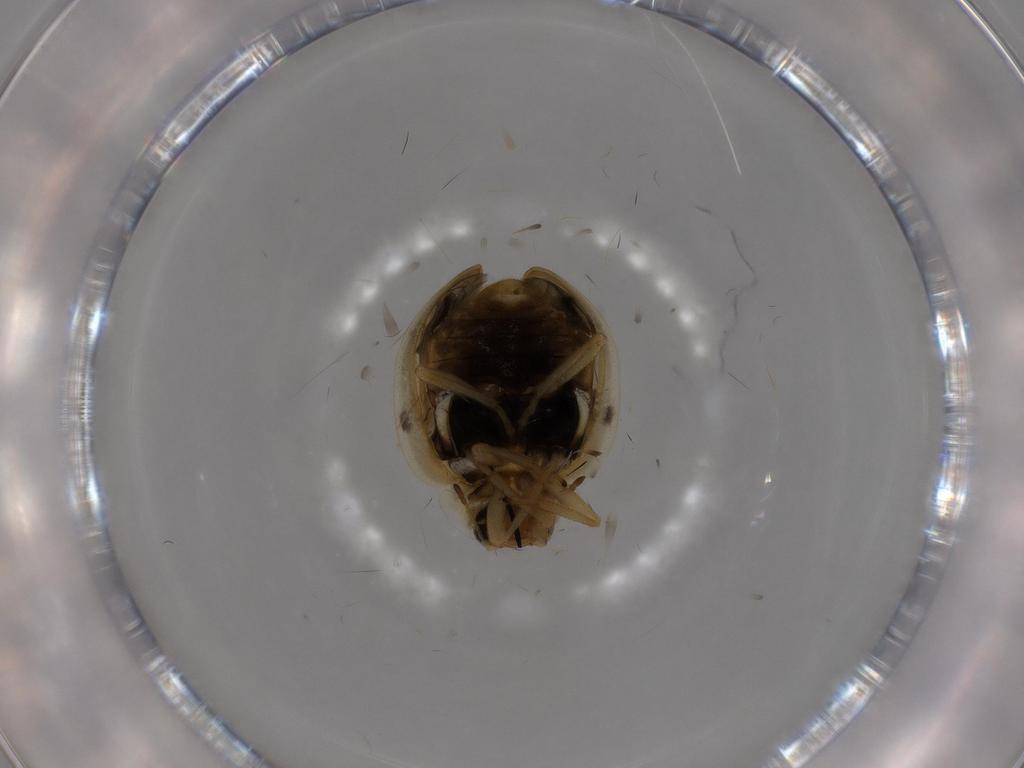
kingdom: Animalia
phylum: Arthropoda
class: Insecta
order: Coleoptera
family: Coccinellidae
